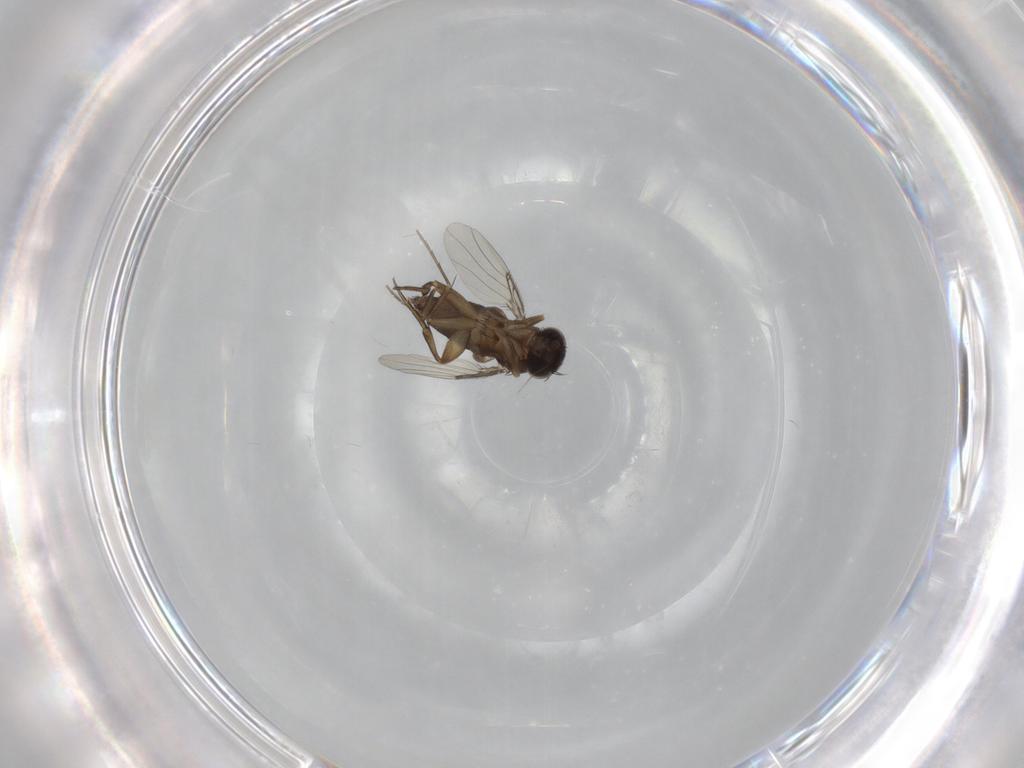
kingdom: Animalia
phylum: Arthropoda
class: Insecta
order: Diptera
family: Phoridae
